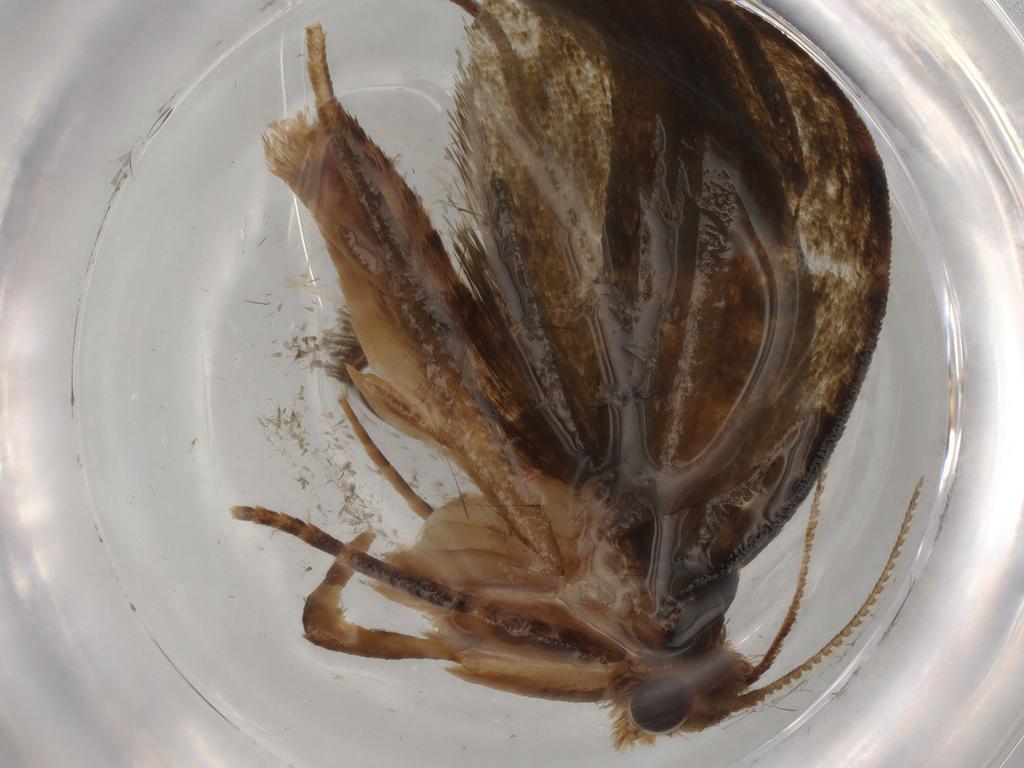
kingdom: Animalia
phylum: Arthropoda
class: Insecta
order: Lepidoptera
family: Geometridae
